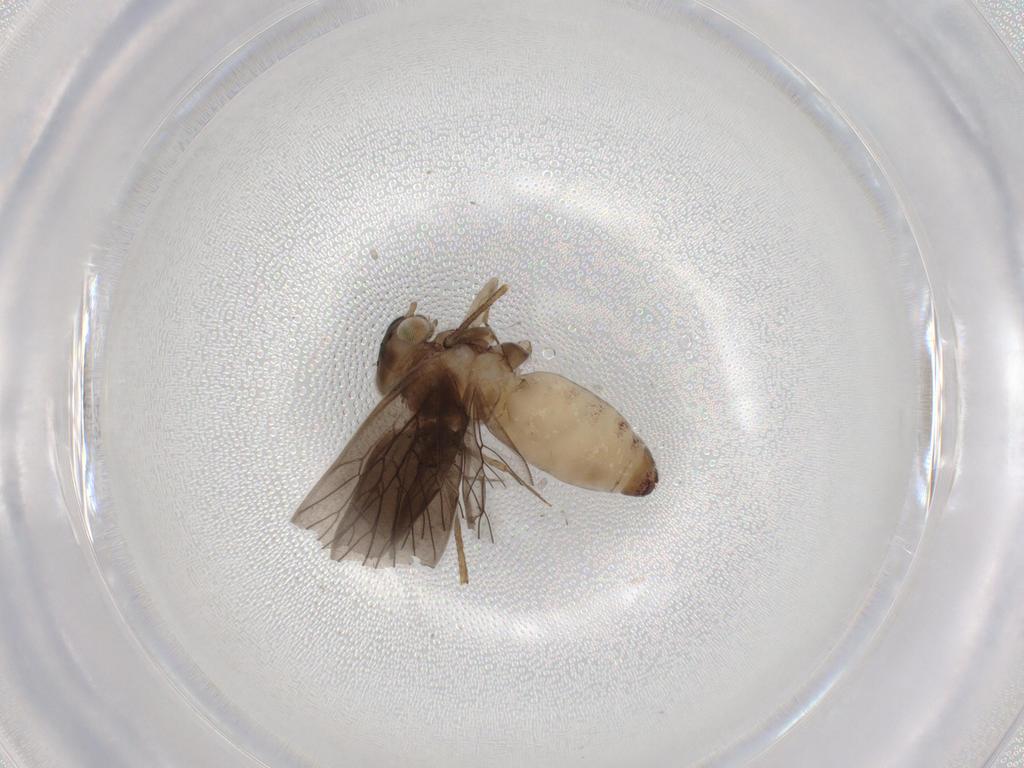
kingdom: Animalia
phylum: Arthropoda
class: Insecta
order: Psocodea
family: Lepidopsocidae
